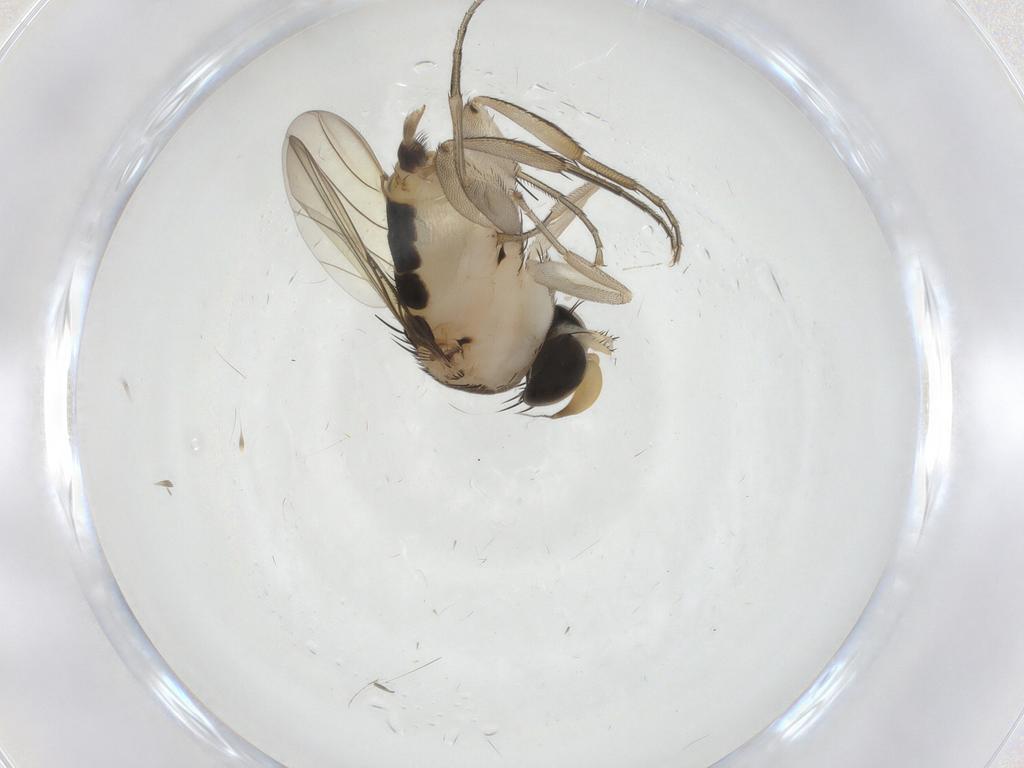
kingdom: Animalia
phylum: Arthropoda
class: Insecta
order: Diptera
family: Phoridae
